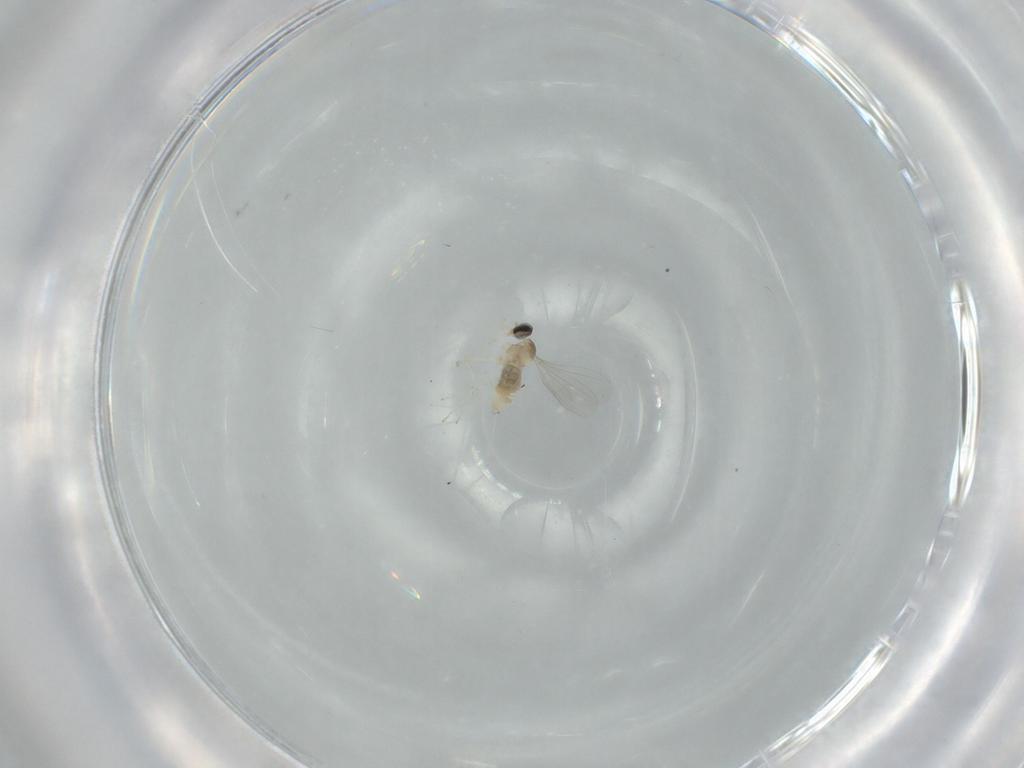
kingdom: Animalia
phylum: Arthropoda
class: Insecta
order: Diptera
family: Cecidomyiidae
